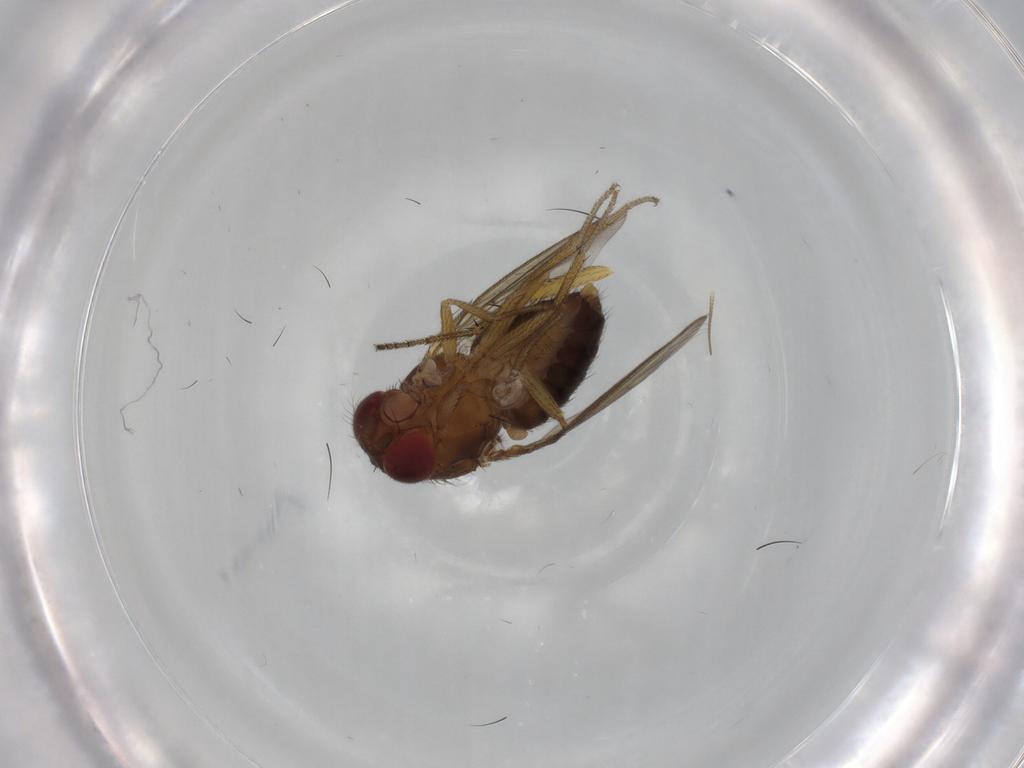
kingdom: Animalia
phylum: Arthropoda
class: Insecta
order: Diptera
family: Drosophilidae
